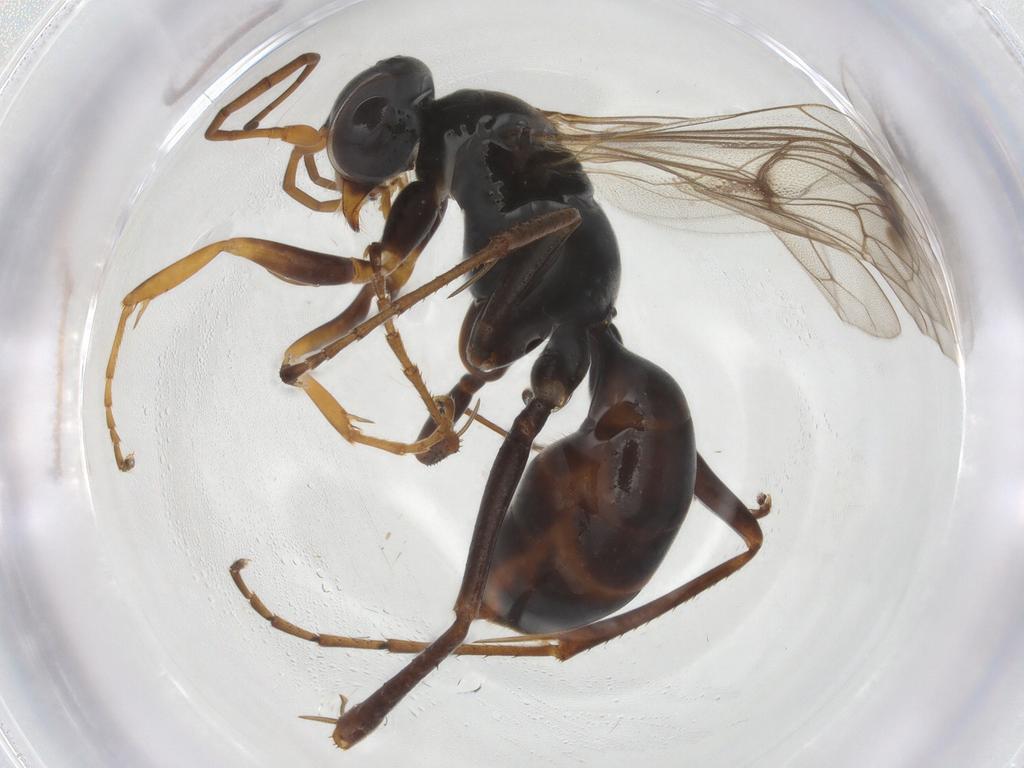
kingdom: Animalia
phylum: Arthropoda
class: Insecta
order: Hymenoptera
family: Pompilidae
